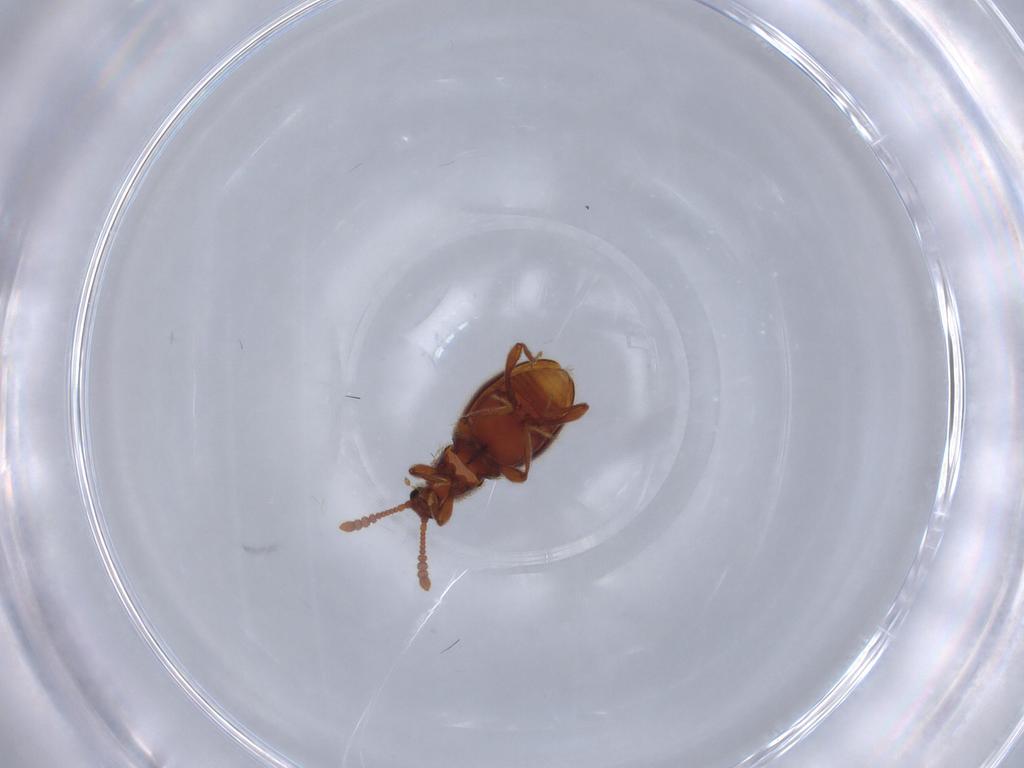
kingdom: Animalia
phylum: Arthropoda
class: Insecta
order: Coleoptera
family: Staphylinidae
